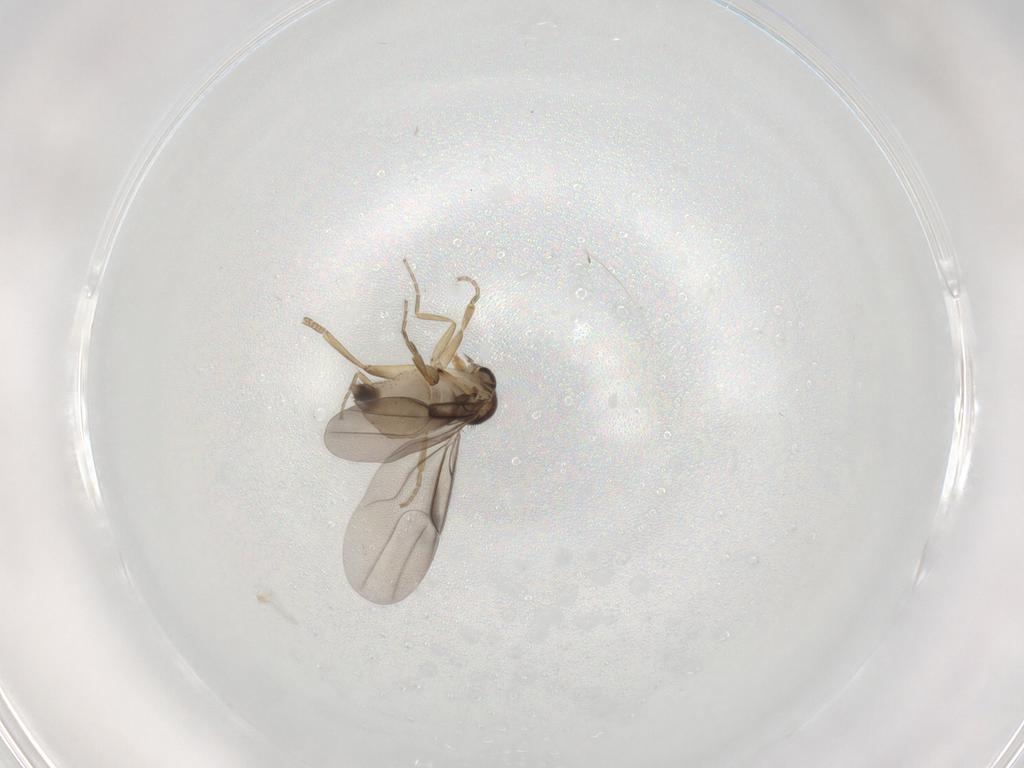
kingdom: Animalia
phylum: Arthropoda
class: Insecta
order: Diptera
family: Phoridae
